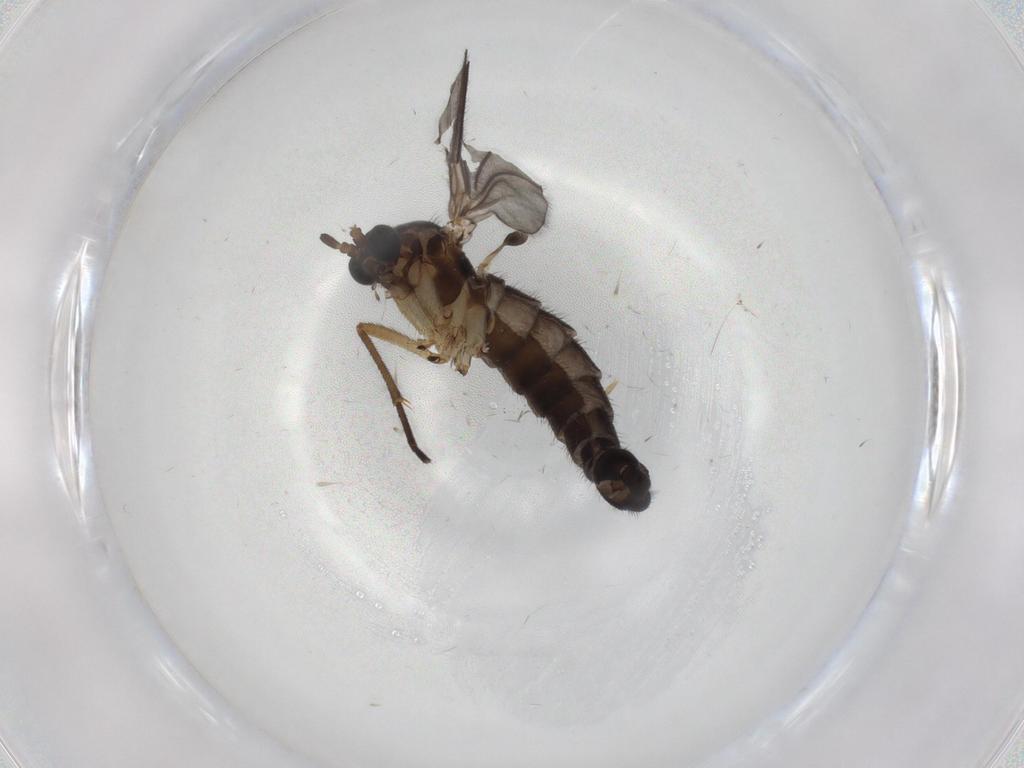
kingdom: Animalia
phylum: Arthropoda
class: Insecta
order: Diptera
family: Sciaridae
